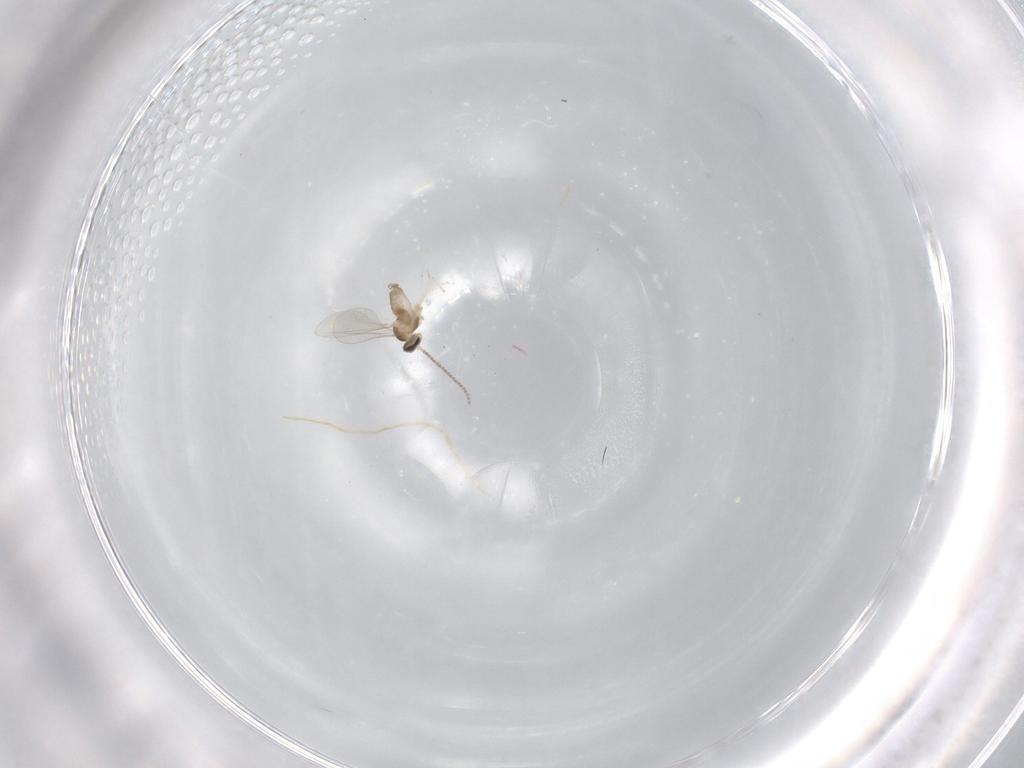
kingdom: Animalia
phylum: Arthropoda
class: Insecta
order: Diptera
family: Cecidomyiidae
